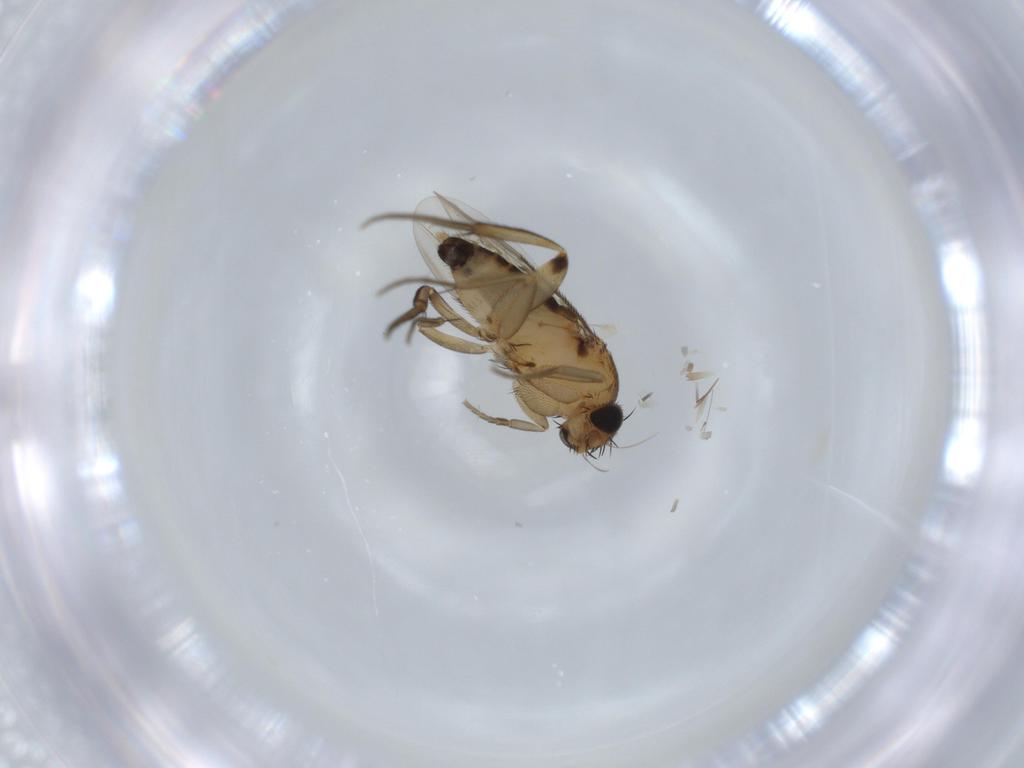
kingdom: Animalia
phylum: Arthropoda
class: Insecta
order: Diptera
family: Phoridae
